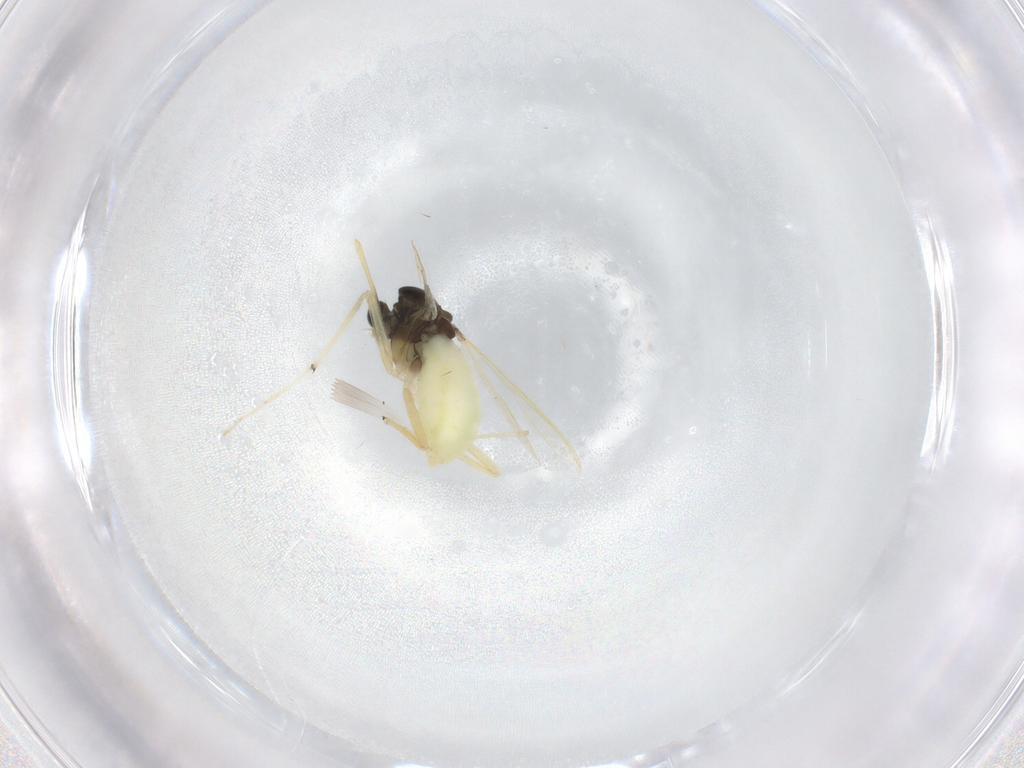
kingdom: Animalia
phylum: Arthropoda
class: Insecta
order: Diptera
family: Chironomidae
